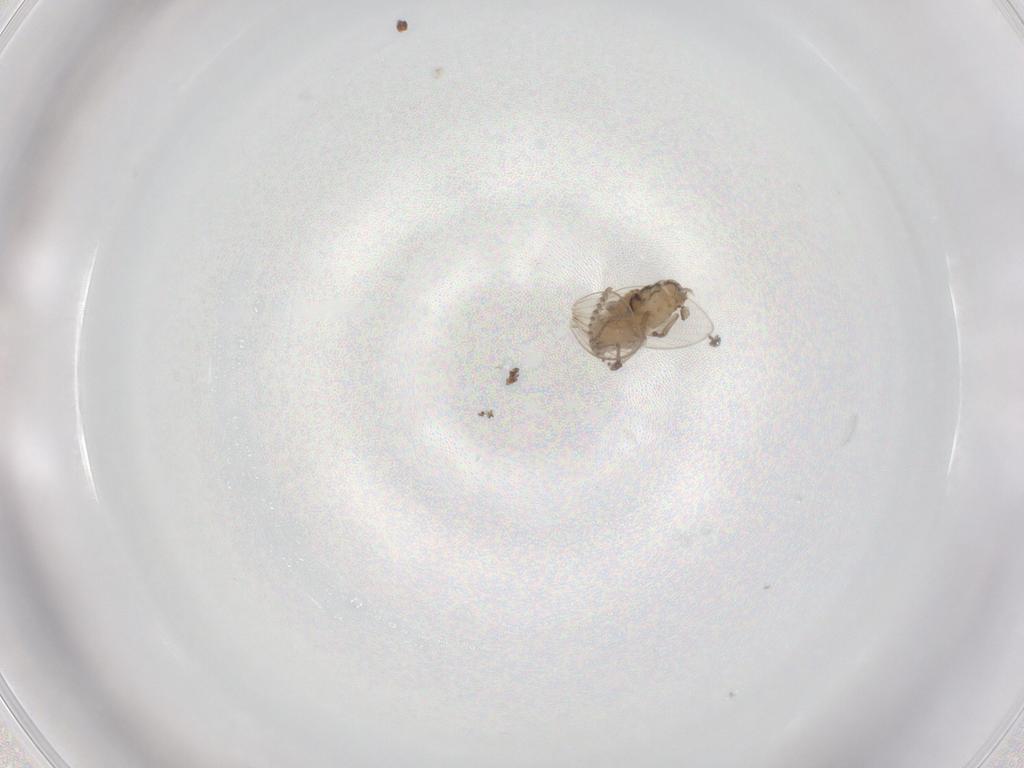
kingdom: Animalia
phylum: Arthropoda
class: Insecta
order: Diptera
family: Psychodidae
